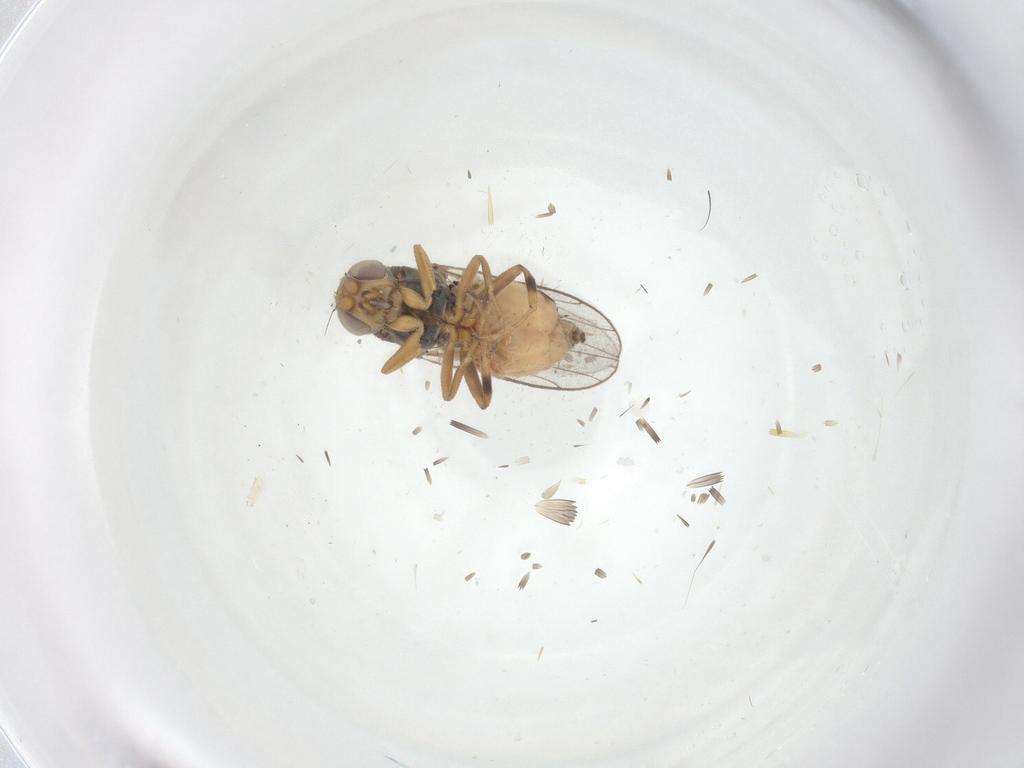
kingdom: Animalia
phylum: Arthropoda
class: Insecta
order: Diptera
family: Chloropidae
